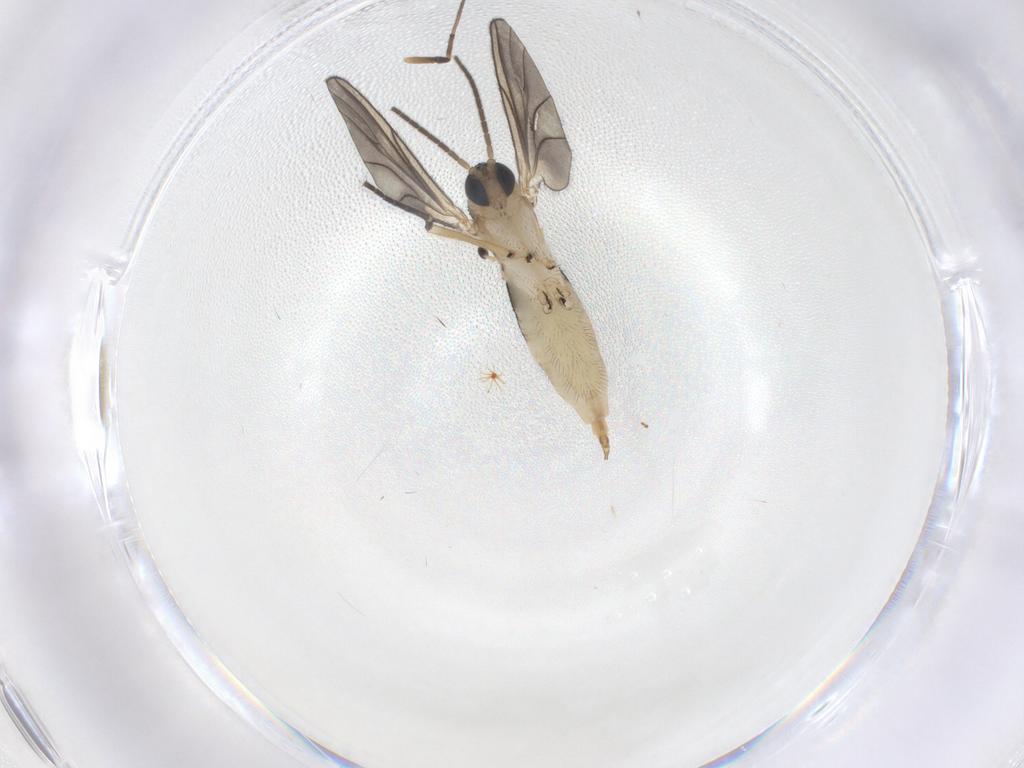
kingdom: Animalia
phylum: Arthropoda
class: Insecta
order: Diptera
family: Sciaridae
